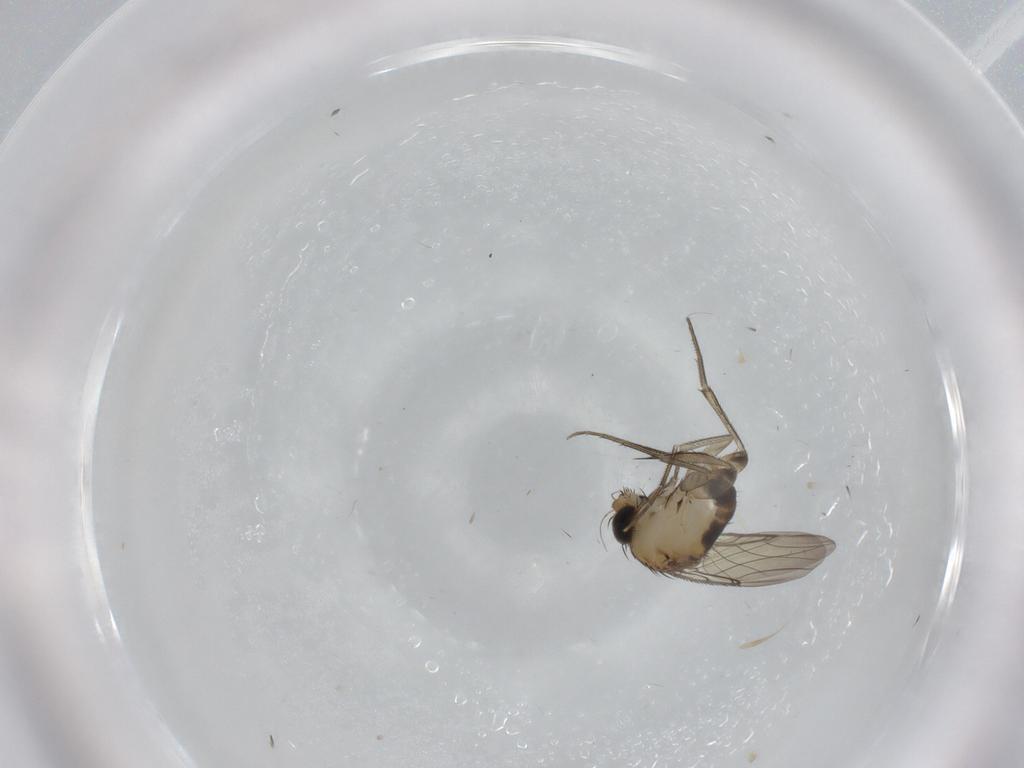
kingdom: Animalia
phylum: Arthropoda
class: Insecta
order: Diptera
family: Phoridae
